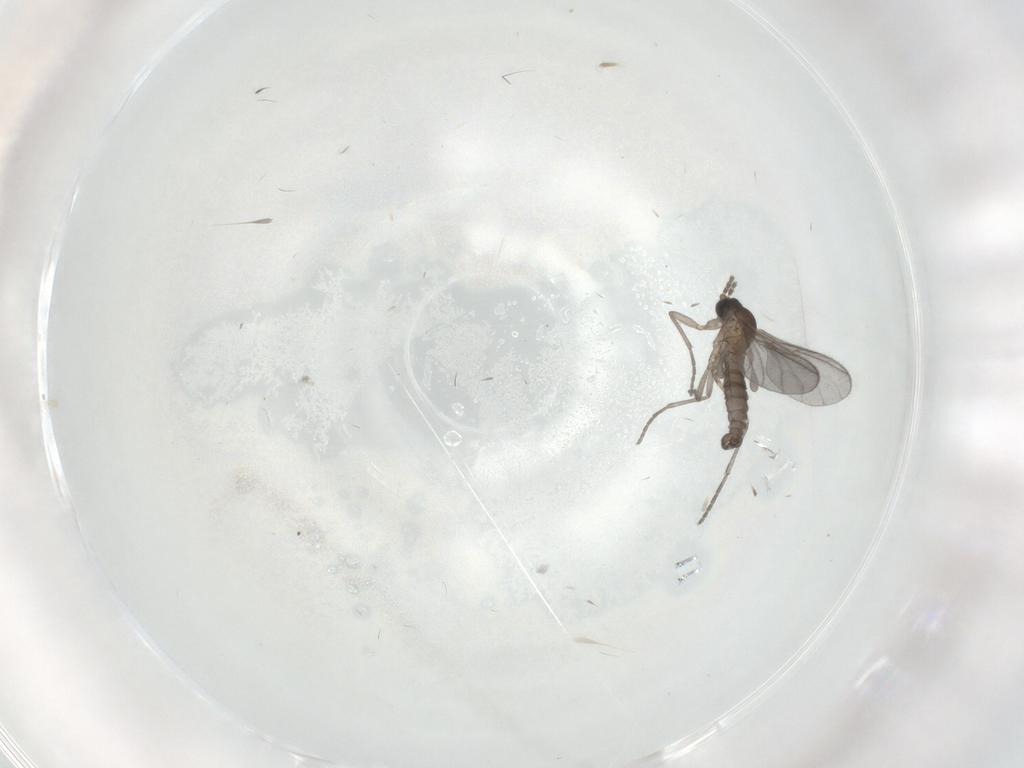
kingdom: Animalia
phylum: Arthropoda
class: Insecta
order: Diptera
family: Sciaridae
